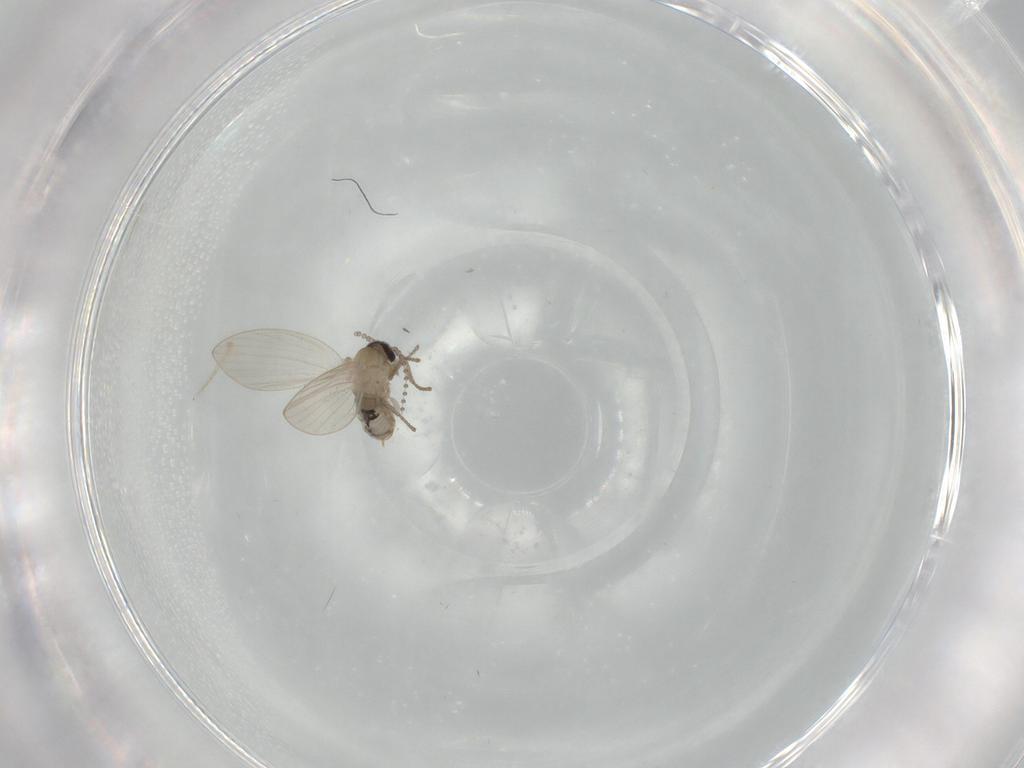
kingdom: Animalia
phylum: Arthropoda
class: Insecta
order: Diptera
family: Psychodidae
